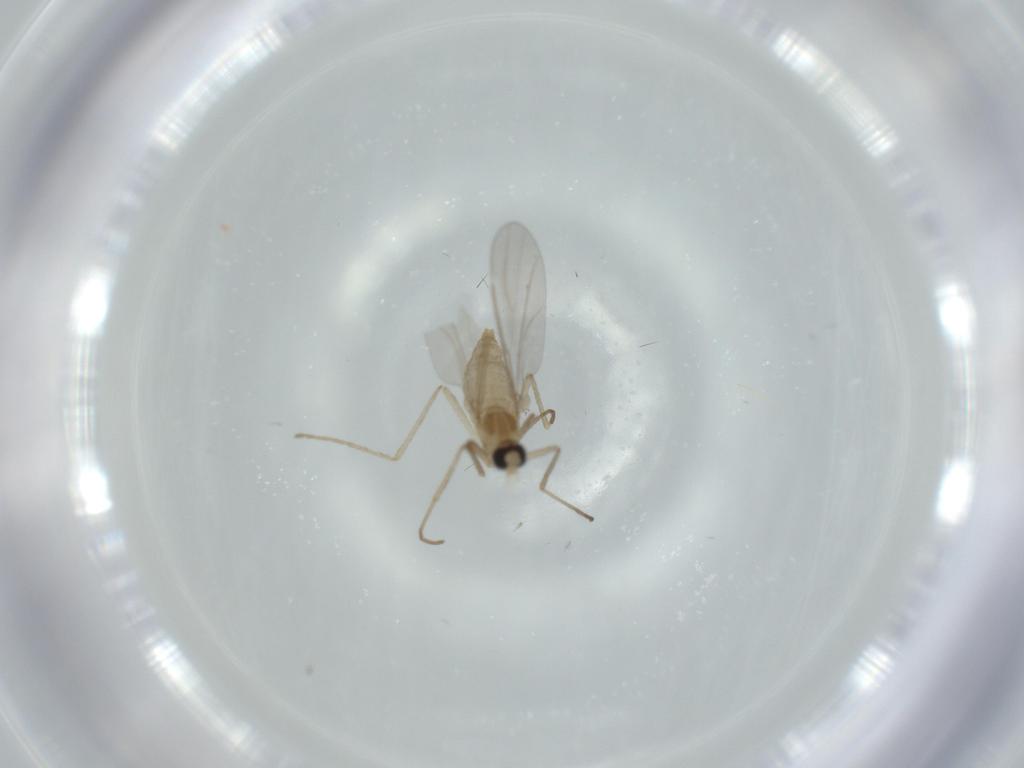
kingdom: Animalia
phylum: Arthropoda
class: Insecta
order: Diptera
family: Cecidomyiidae
